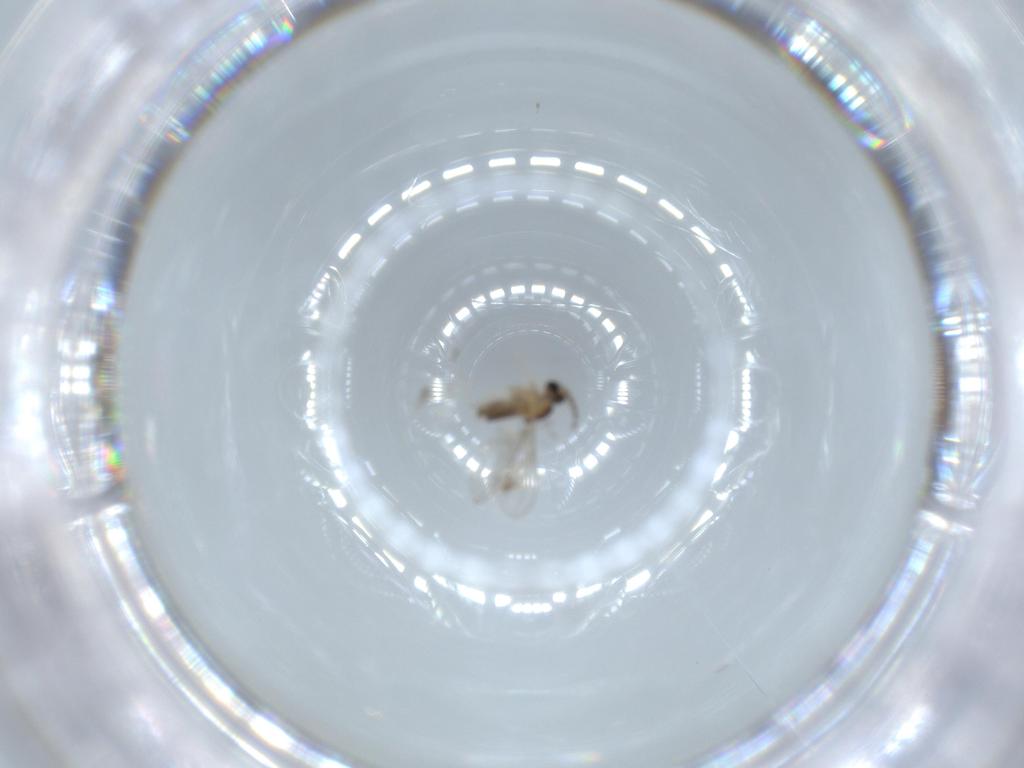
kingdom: Animalia
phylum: Arthropoda
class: Insecta
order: Diptera
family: Cecidomyiidae
